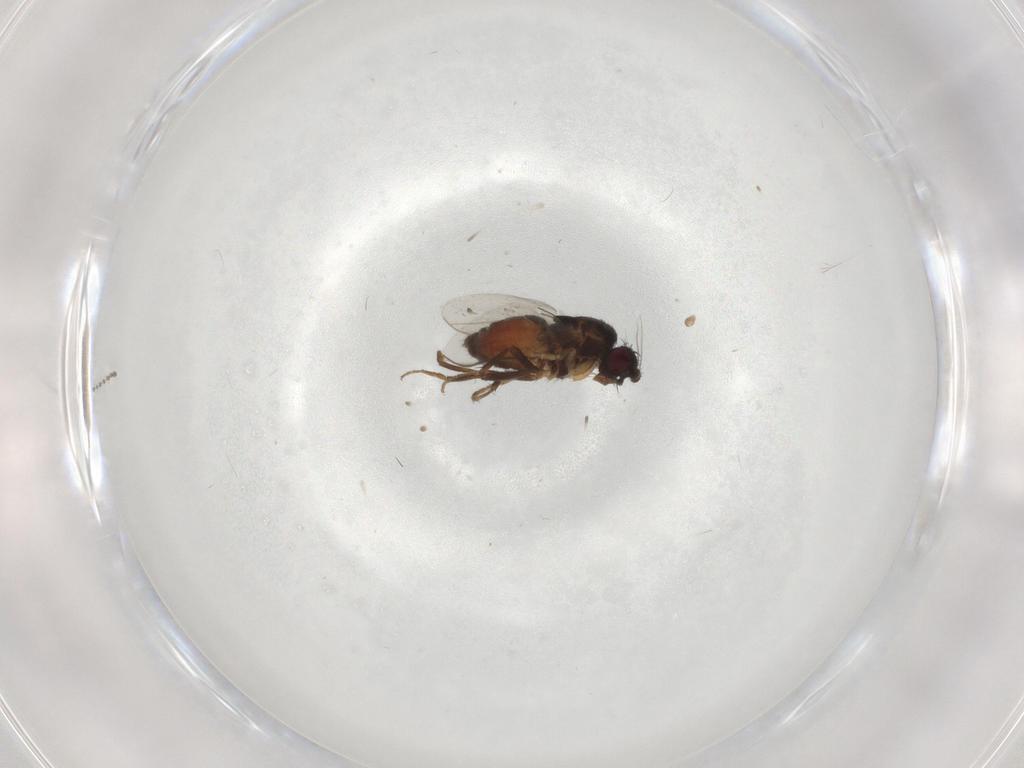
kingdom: Animalia
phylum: Arthropoda
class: Insecta
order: Diptera
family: Sphaeroceridae
